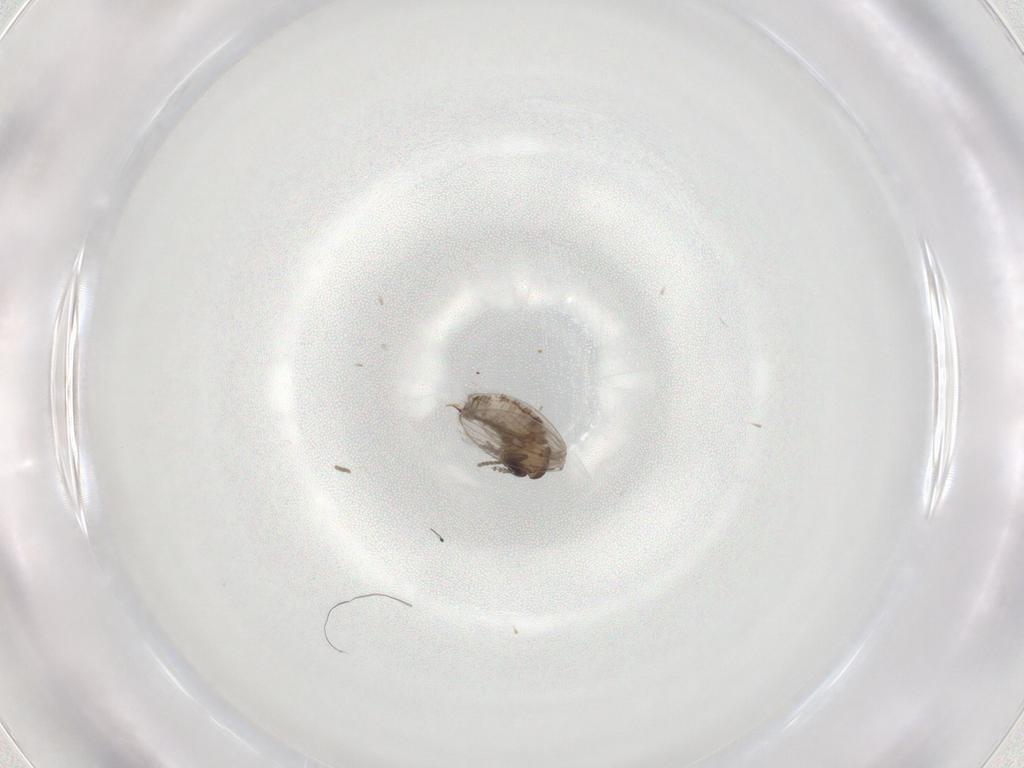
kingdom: Animalia
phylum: Arthropoda
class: Insecta
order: Diptera
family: Psychodidae
